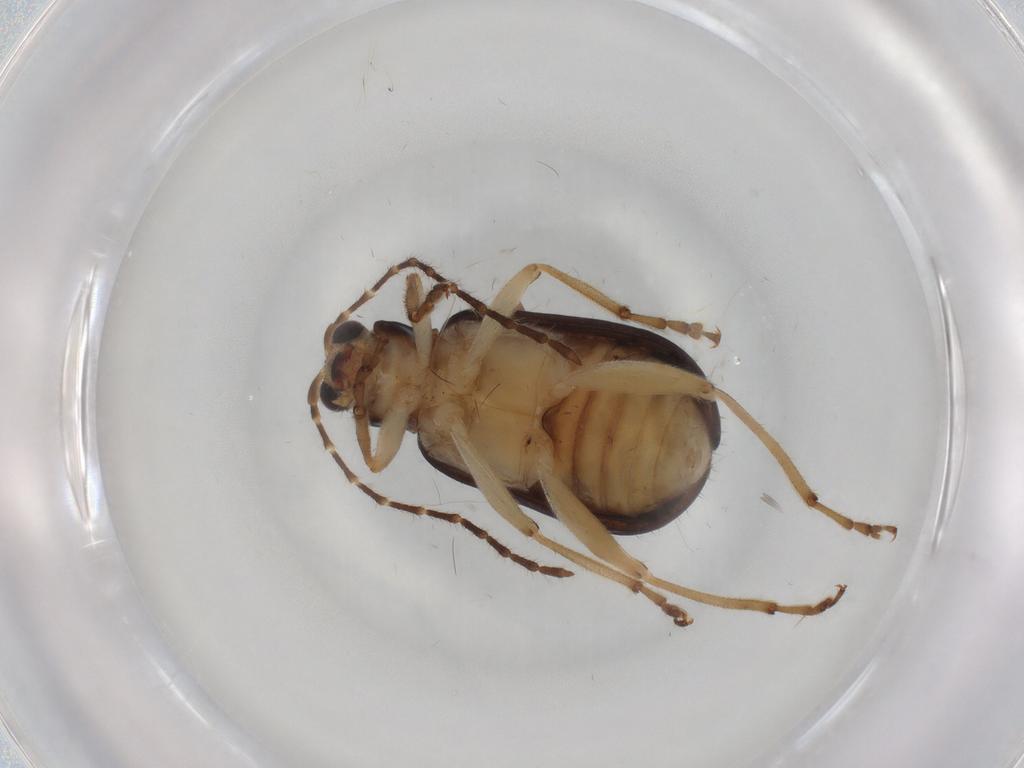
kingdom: Animalia
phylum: Arthropoda
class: Insecta
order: Coleoptera
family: Chrysomelidae
